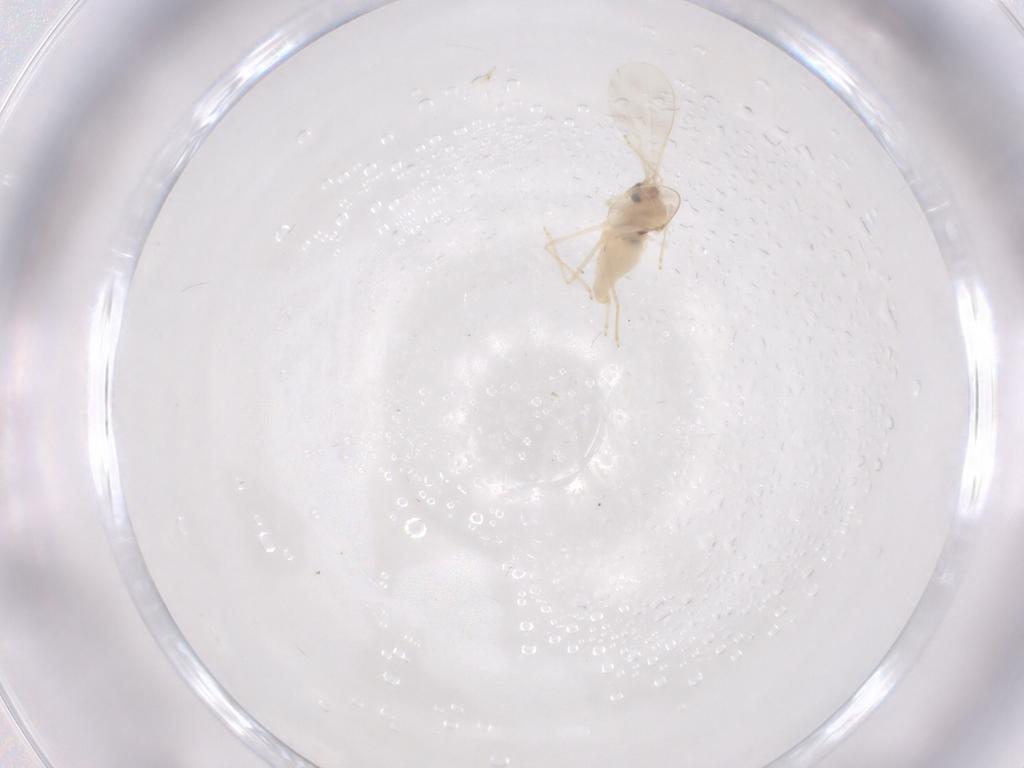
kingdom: Animalia
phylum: Arthropoda
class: Insecta
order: Diptera
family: Cecidomyiidae
